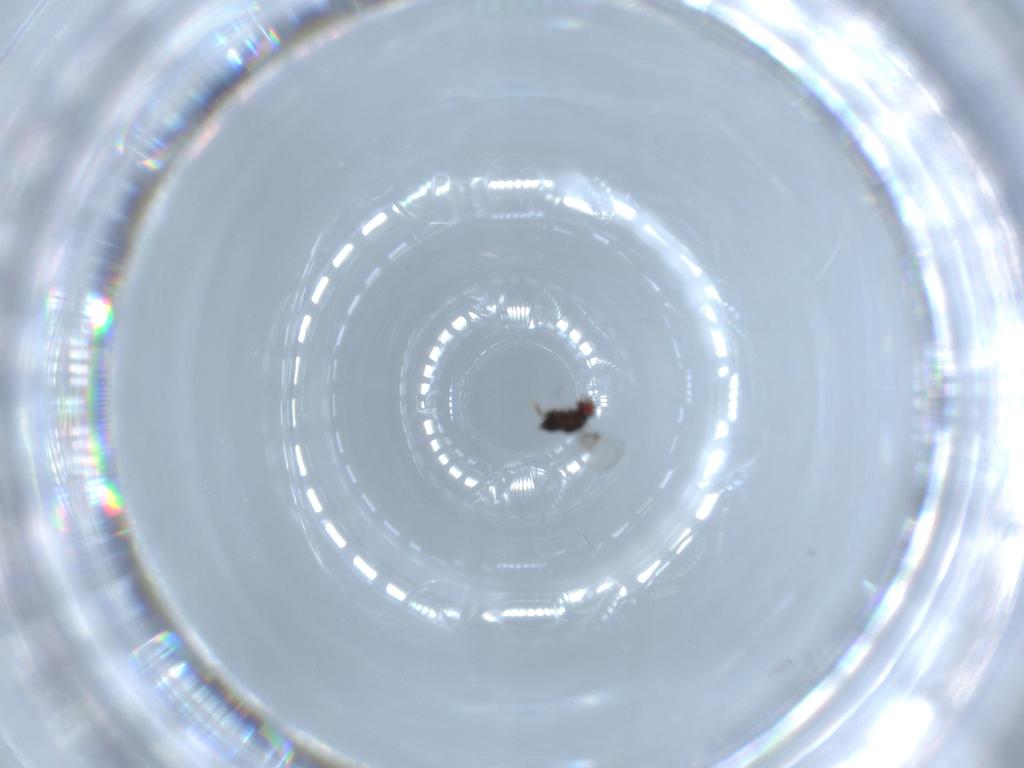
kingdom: Animalia
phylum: Arthropoda
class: Insecta
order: Hymenoptera
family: Trichogrammatidae
